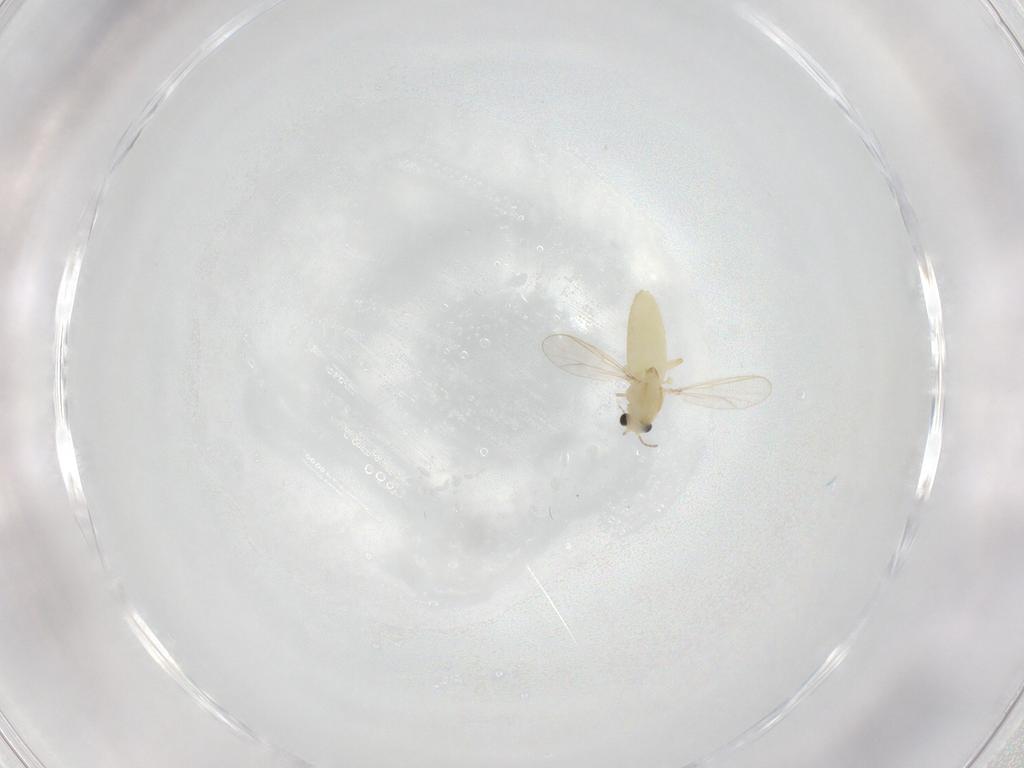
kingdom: Animalia
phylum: Arthropoda
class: Insecta
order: Diptera
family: Chironomidae
